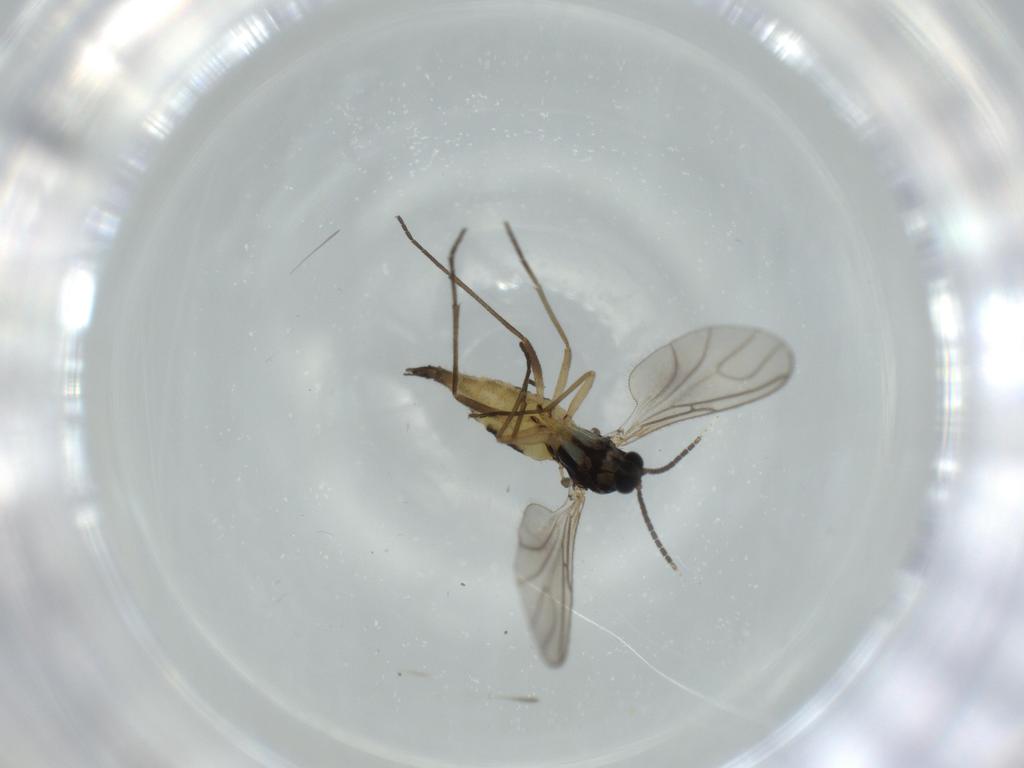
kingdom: Animalia
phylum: Arthropoda
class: Insecta
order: Diptera
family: Sciaridae
